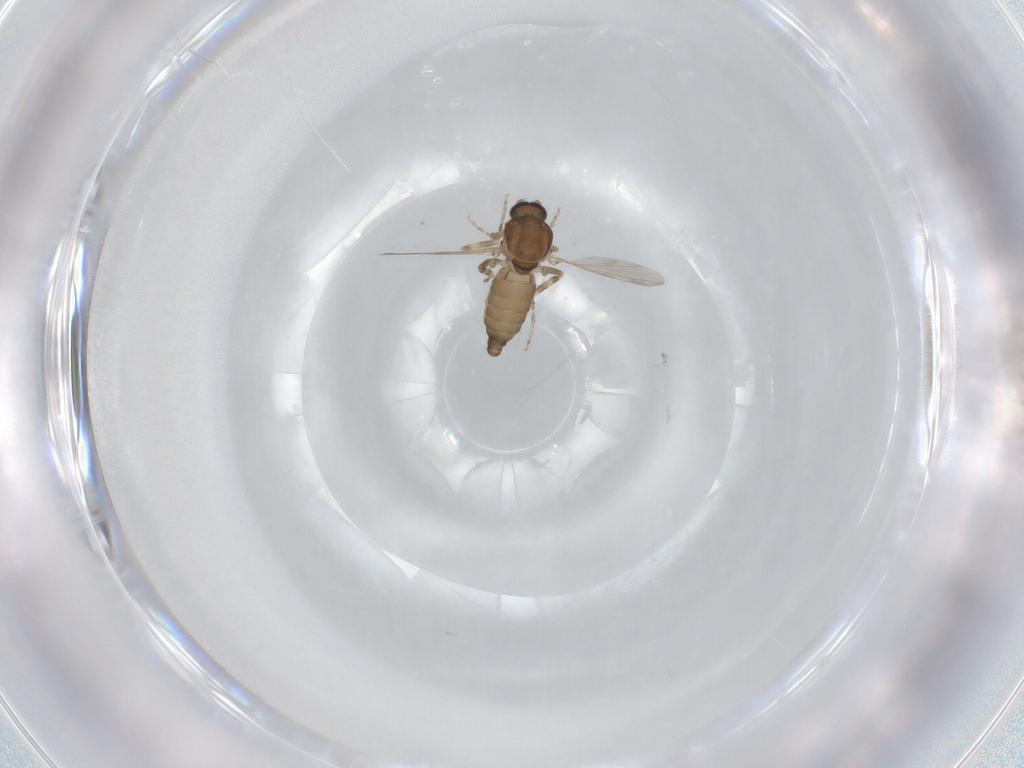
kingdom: Animalia
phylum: Arthropoda
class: Insecta
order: Diptera
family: Ceratopogonidae
